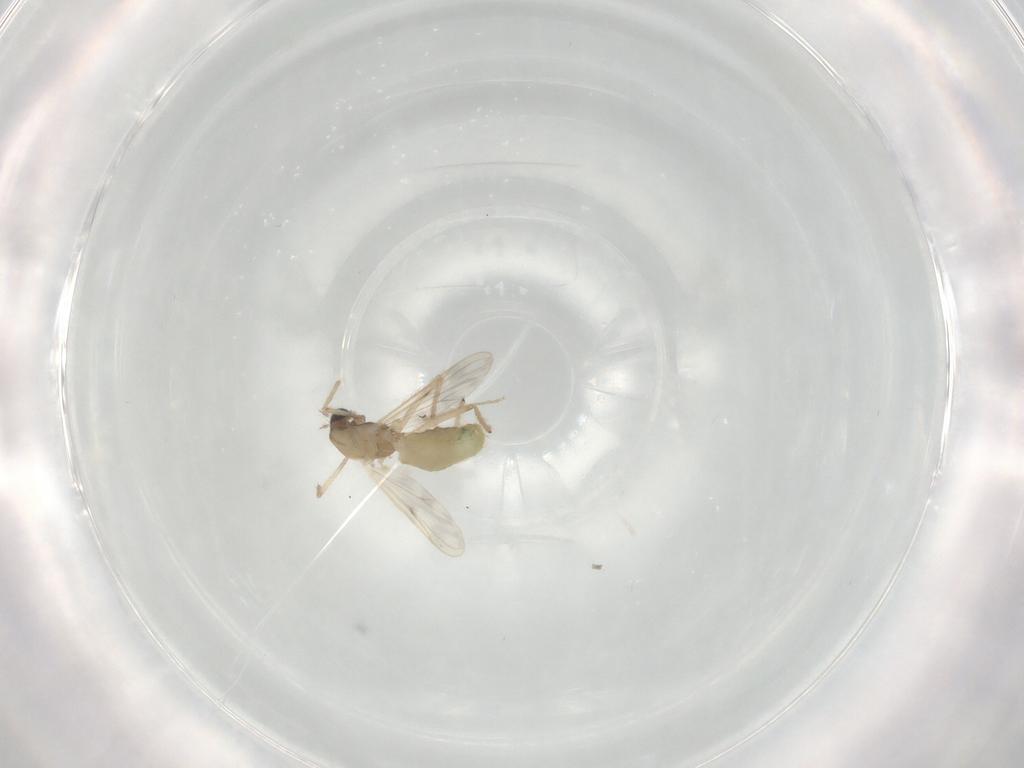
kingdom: Animalia
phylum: Arthropoda
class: Insecta
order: Diptera
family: Chironomidae
